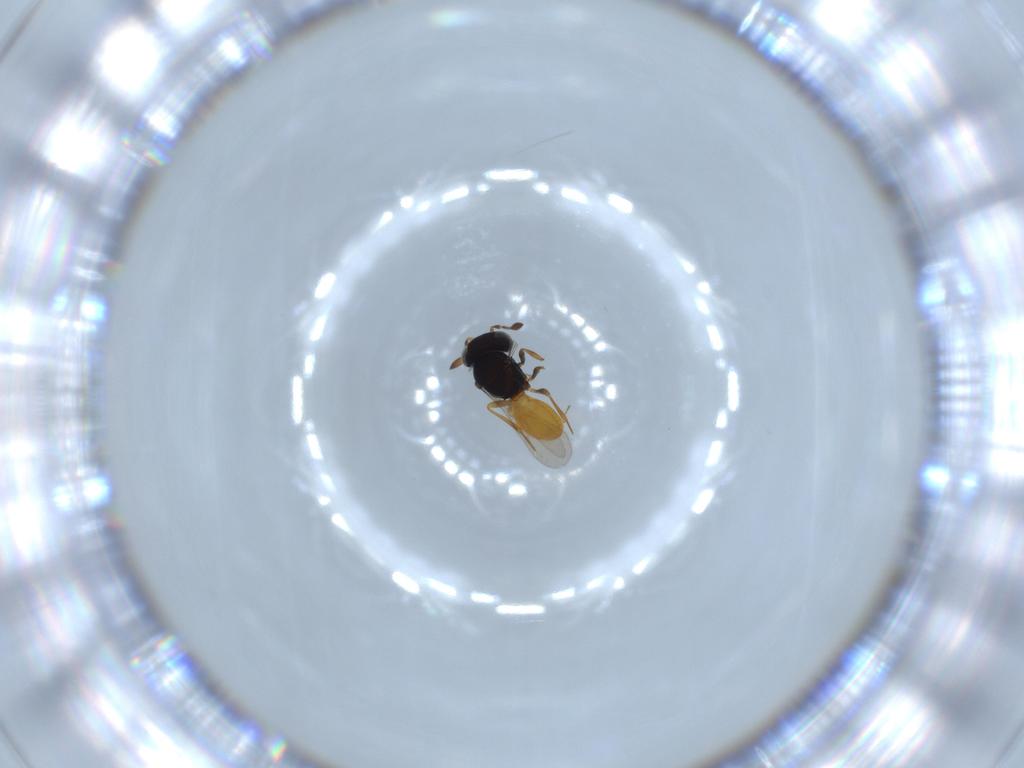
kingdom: Animalia
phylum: Arthropoda
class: Insecta
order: Hymenoptera
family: Scelionidae
